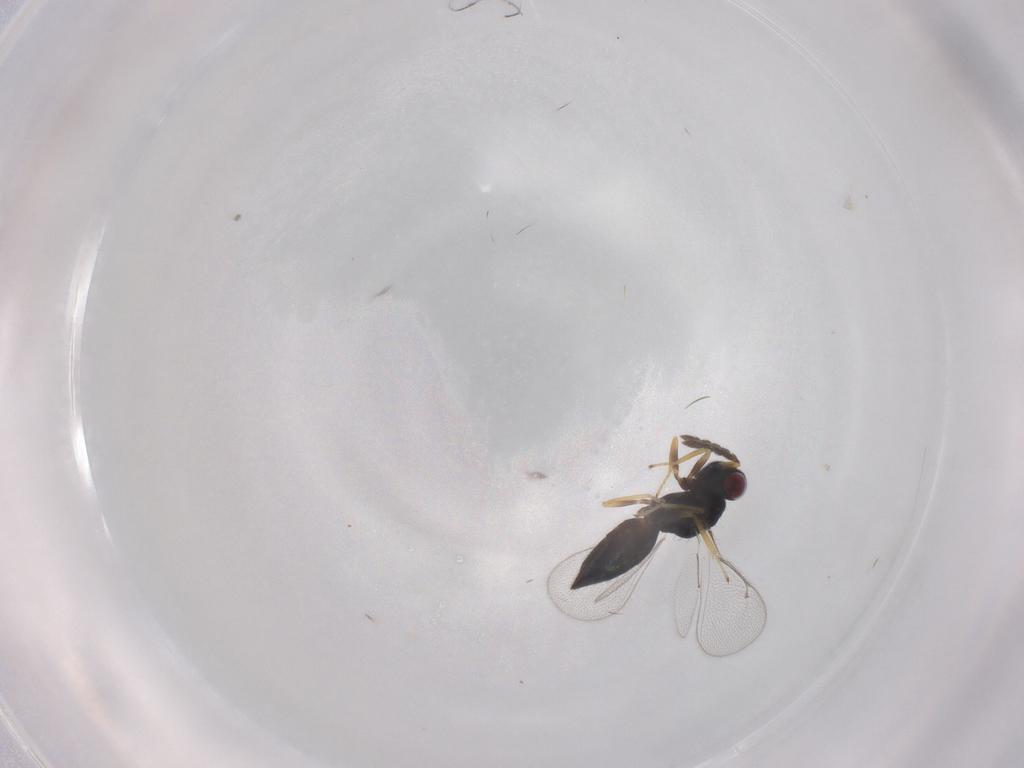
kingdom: Animalia
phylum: Arthropoda
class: Insecta
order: Hymenoptera
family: Eulophidae
